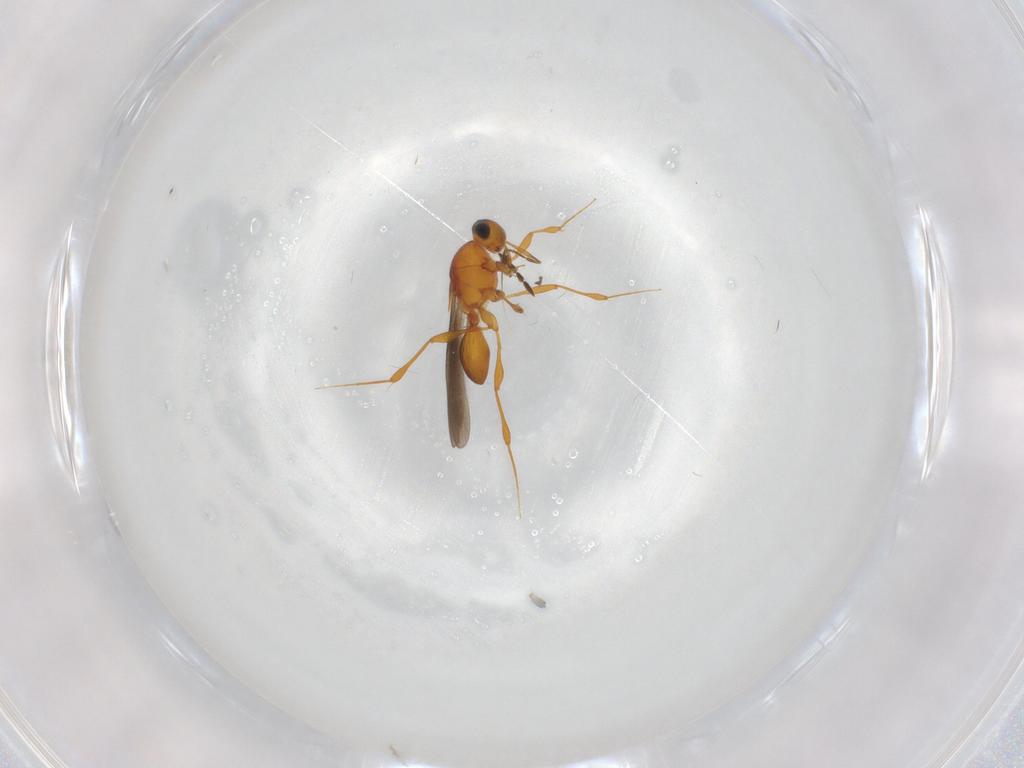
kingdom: Animalia
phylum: Arthropoda
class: Insecta
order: Hymenoptera
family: Platygastridae
